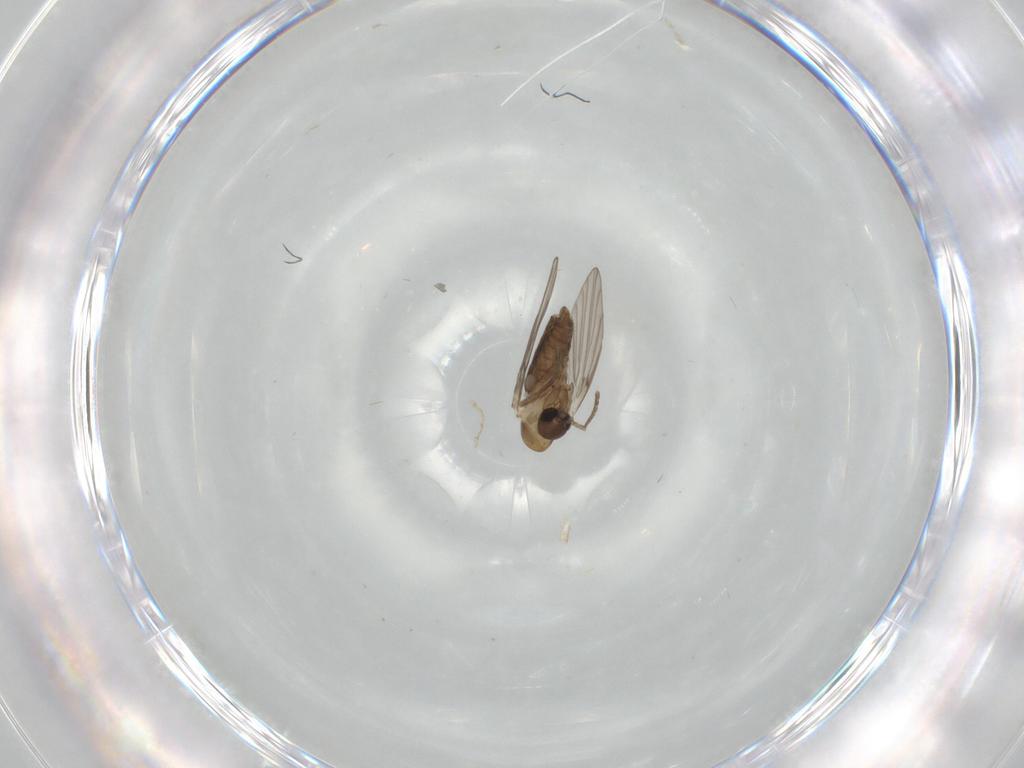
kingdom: Animalia
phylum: Arthropoda
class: Insecta
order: Diptera
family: Psychodidae
